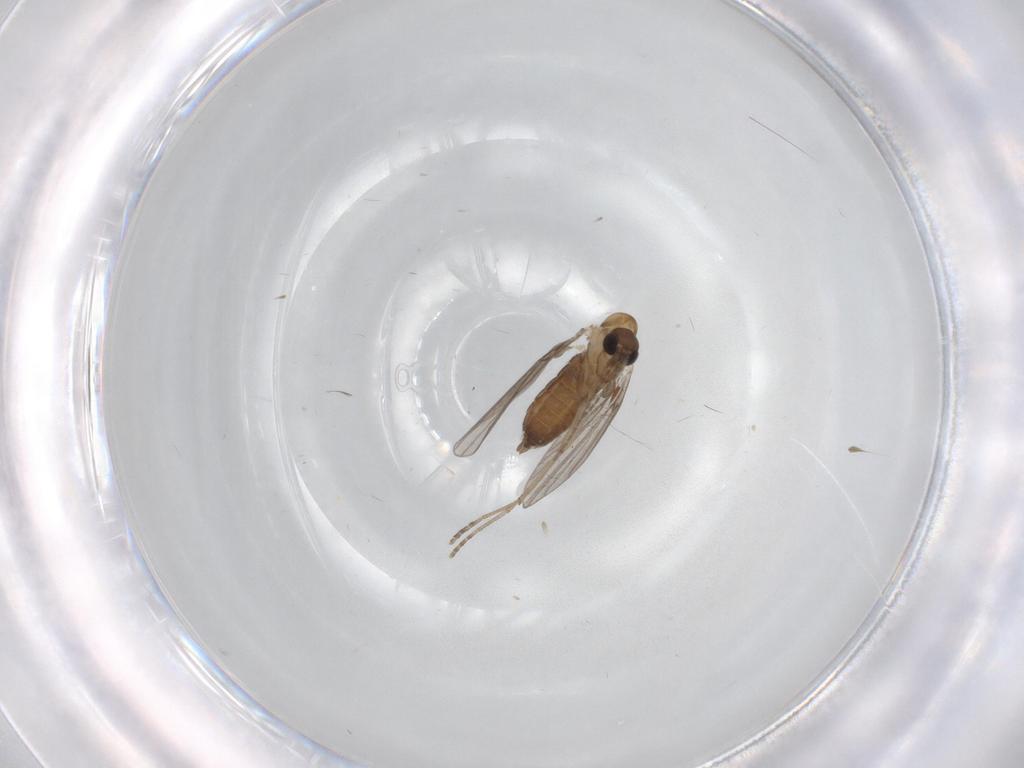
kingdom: Animalia
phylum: Arthropoda
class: Insecta
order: Diptera
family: Cecidomyiidae
